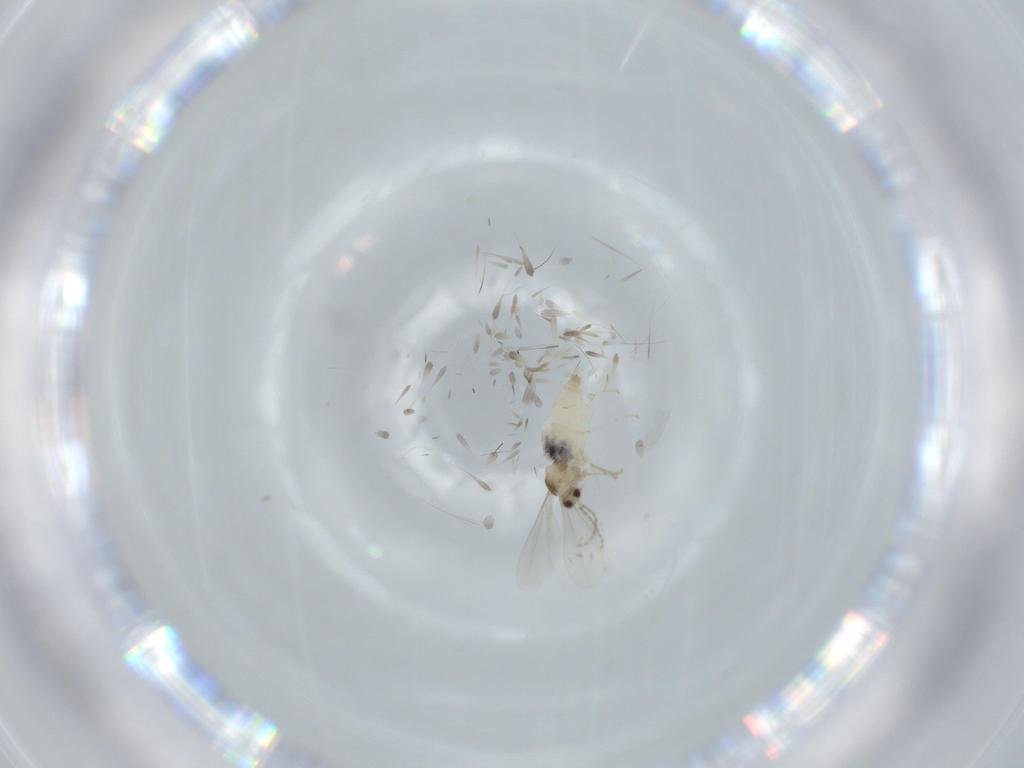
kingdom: Animalia
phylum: Arthropoda
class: Insecta
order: Diptera
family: Cecidomyiidae
